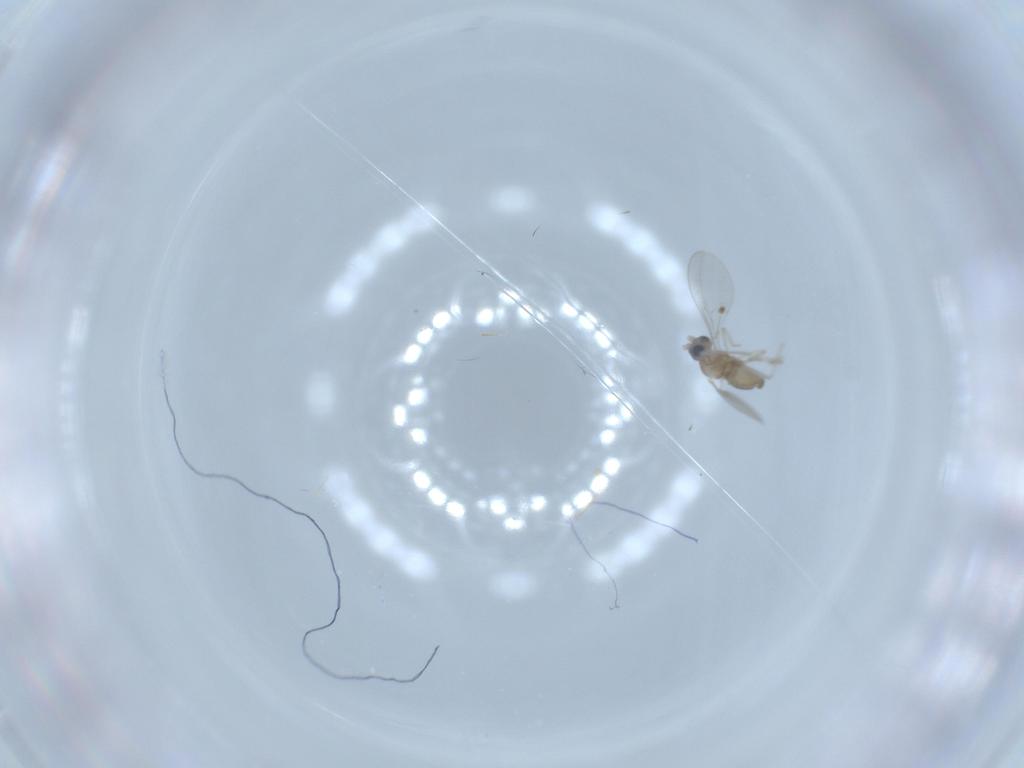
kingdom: Animalia
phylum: Arthropoda
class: Insecta
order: Diptera
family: Cecidomyiidae
